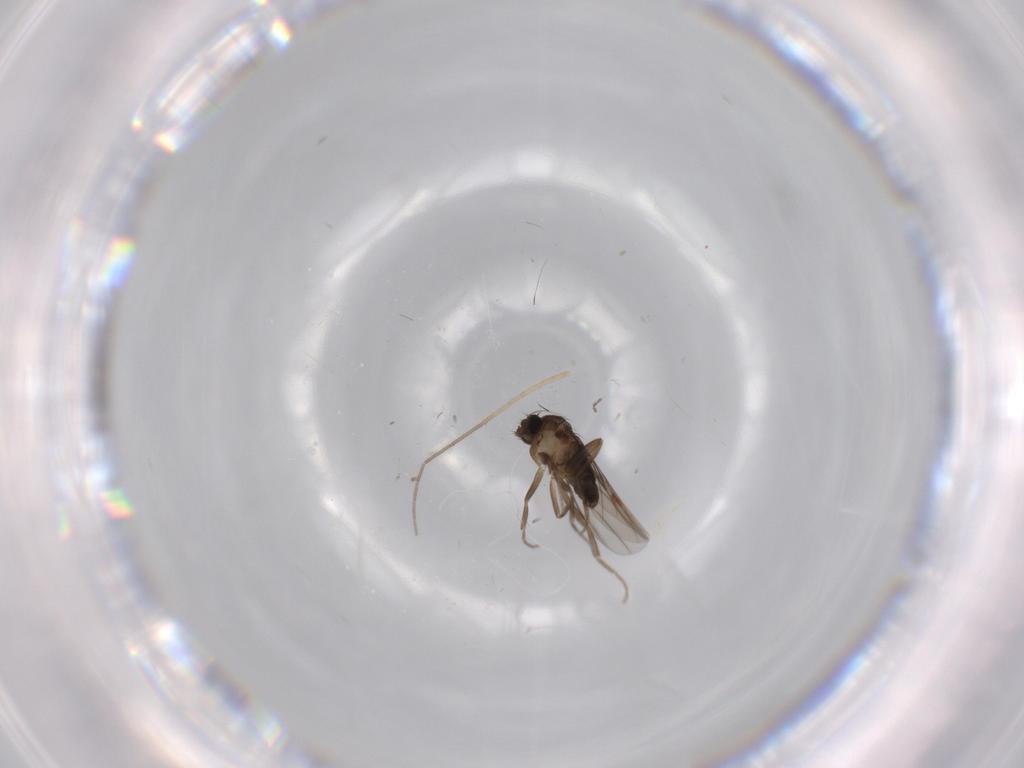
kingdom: Animalia
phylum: Arthropoda
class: Insecta
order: Diptera
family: Phoridae
